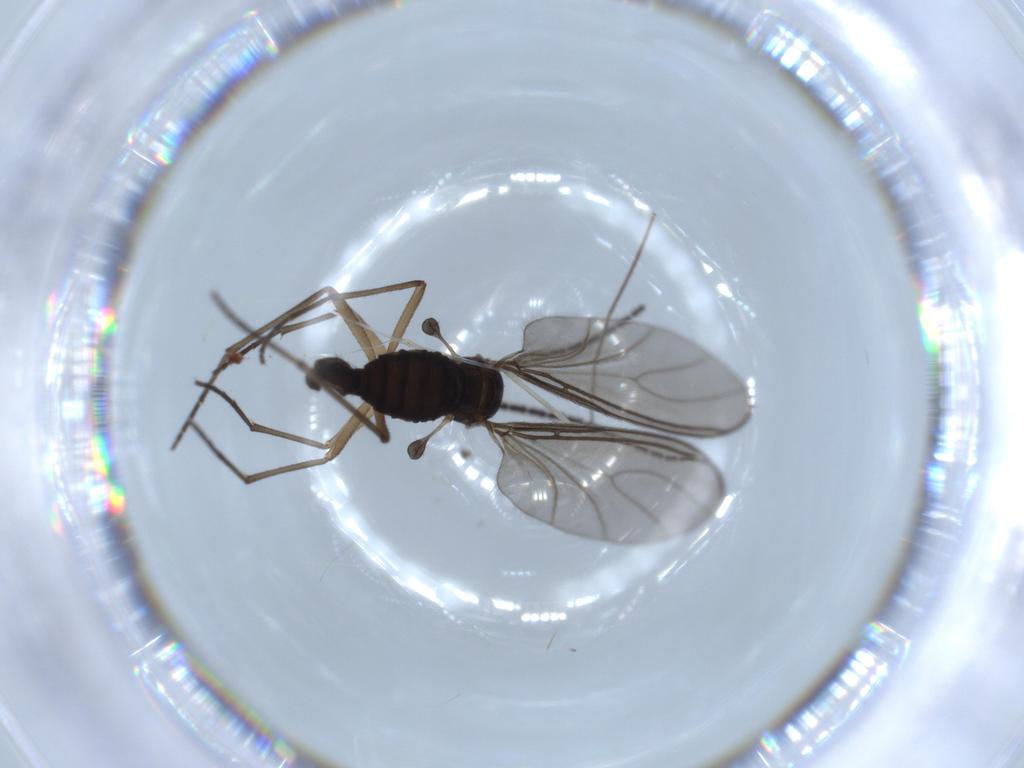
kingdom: Animalia
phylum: Arthropoda
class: Insecta
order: Diptera
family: Sciaridae
